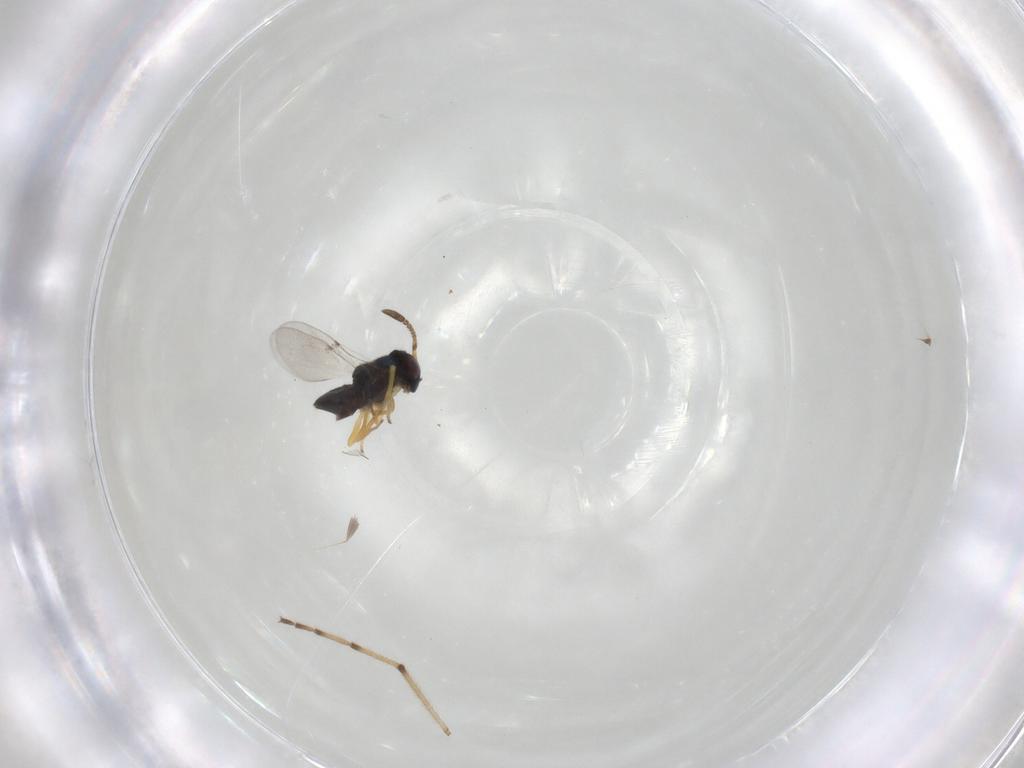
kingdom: Animalia
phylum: Arthropoda
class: Insecta
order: Hymenoptera
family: Encyrtidae
